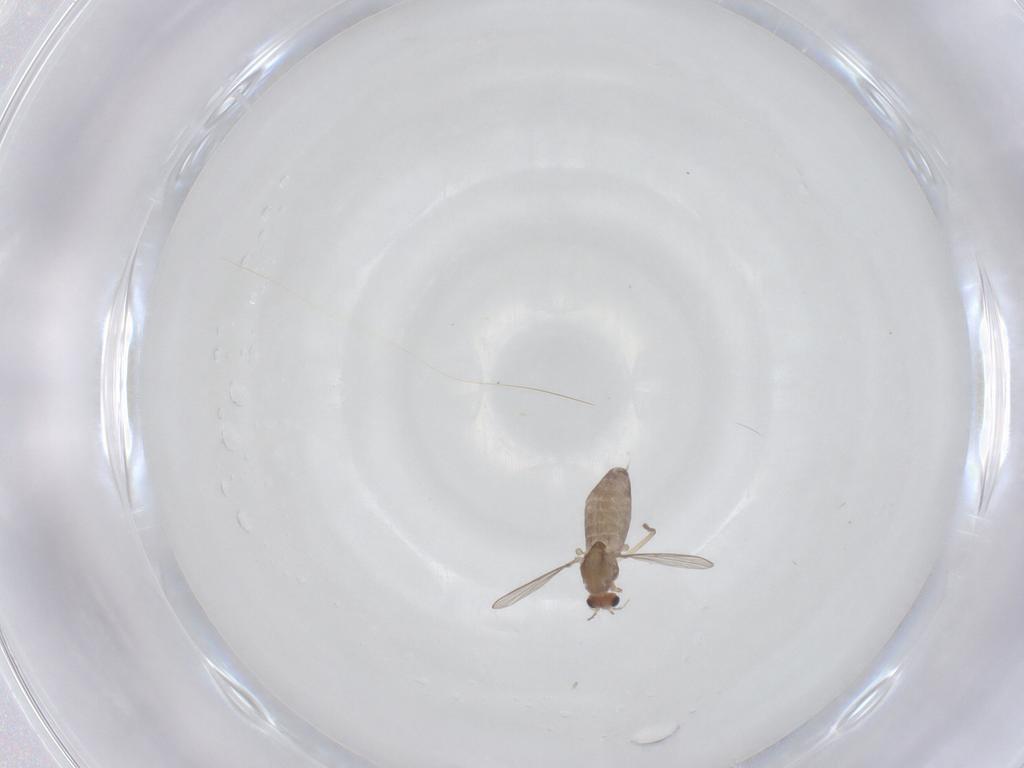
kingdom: Animalia
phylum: Arthropoda
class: Insecta
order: Diptera
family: Chironomidae
